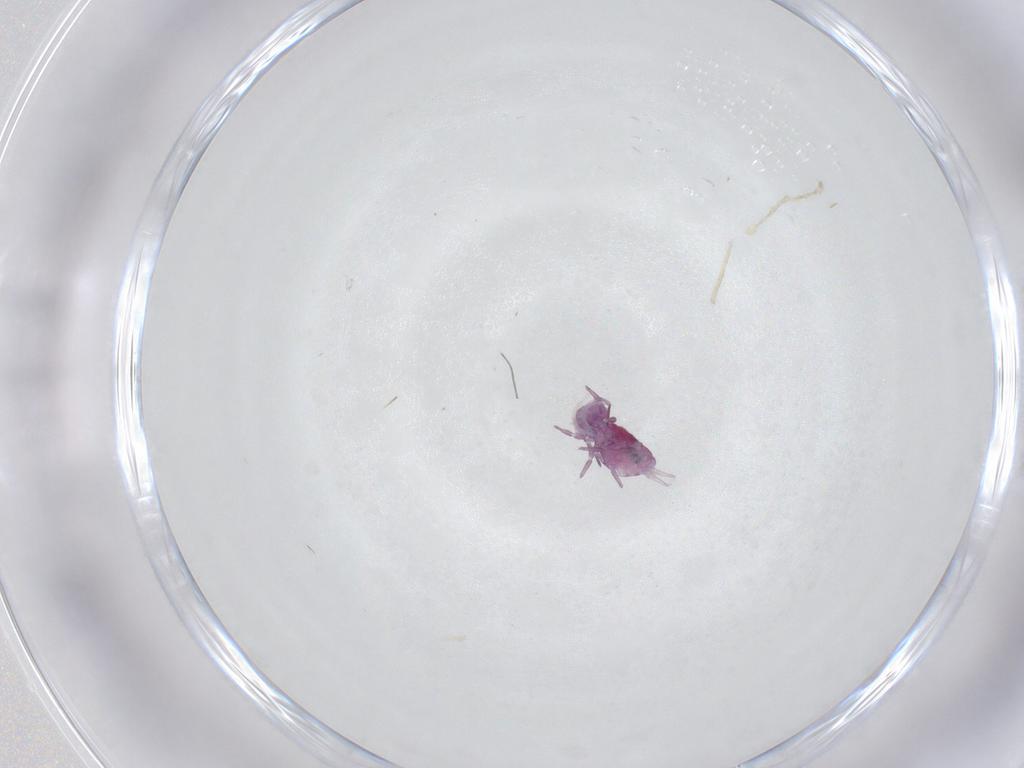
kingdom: Animalia
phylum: Arthropoda
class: Collembola
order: Symphypleona
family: Sminthuridae
